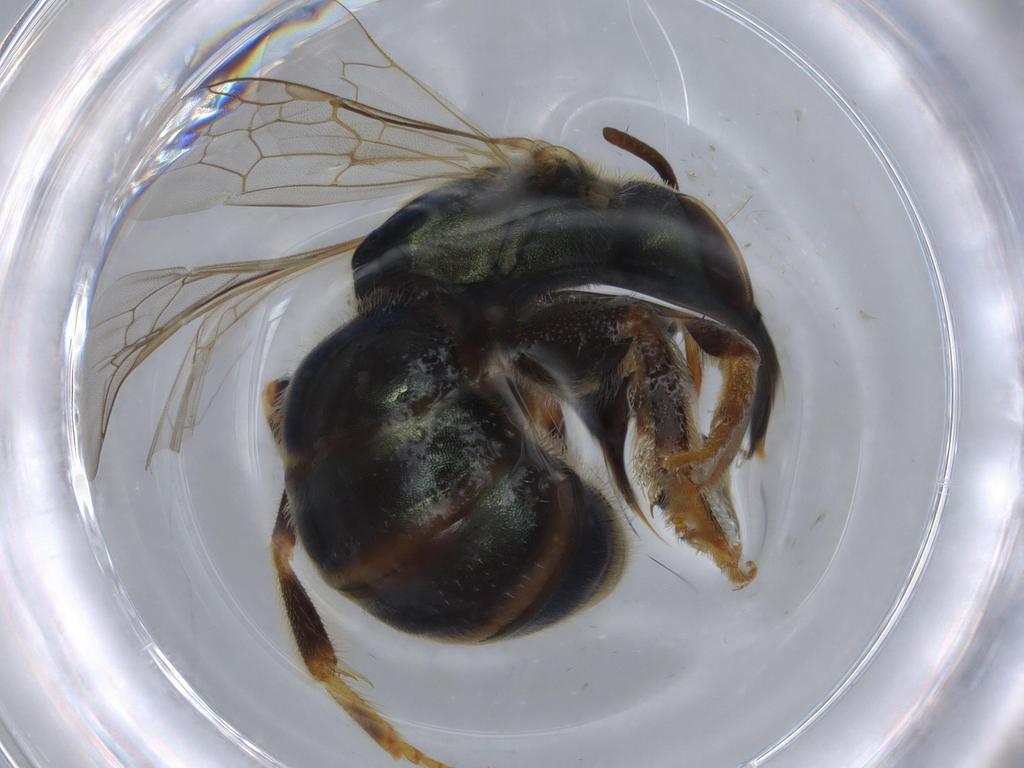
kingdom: Animalia
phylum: Arthropoda
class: Insecta
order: Hymenoptera
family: Halictidae
